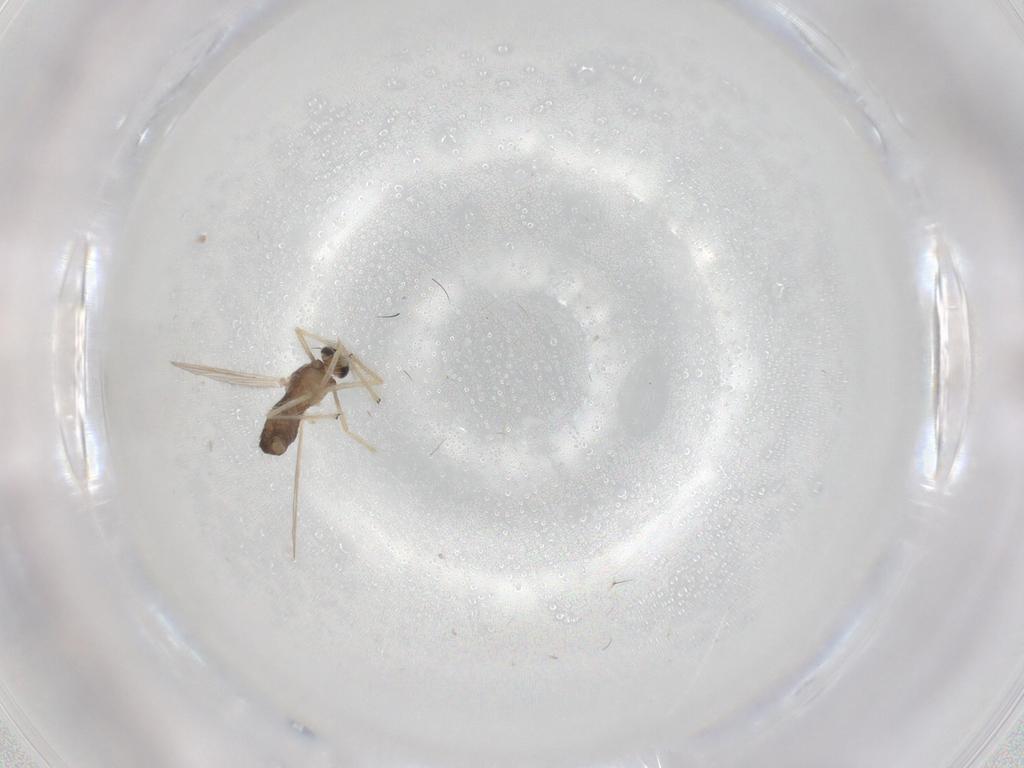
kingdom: Animalia
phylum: Arthropoda
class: Insecta
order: Diptera
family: Chironomidae
